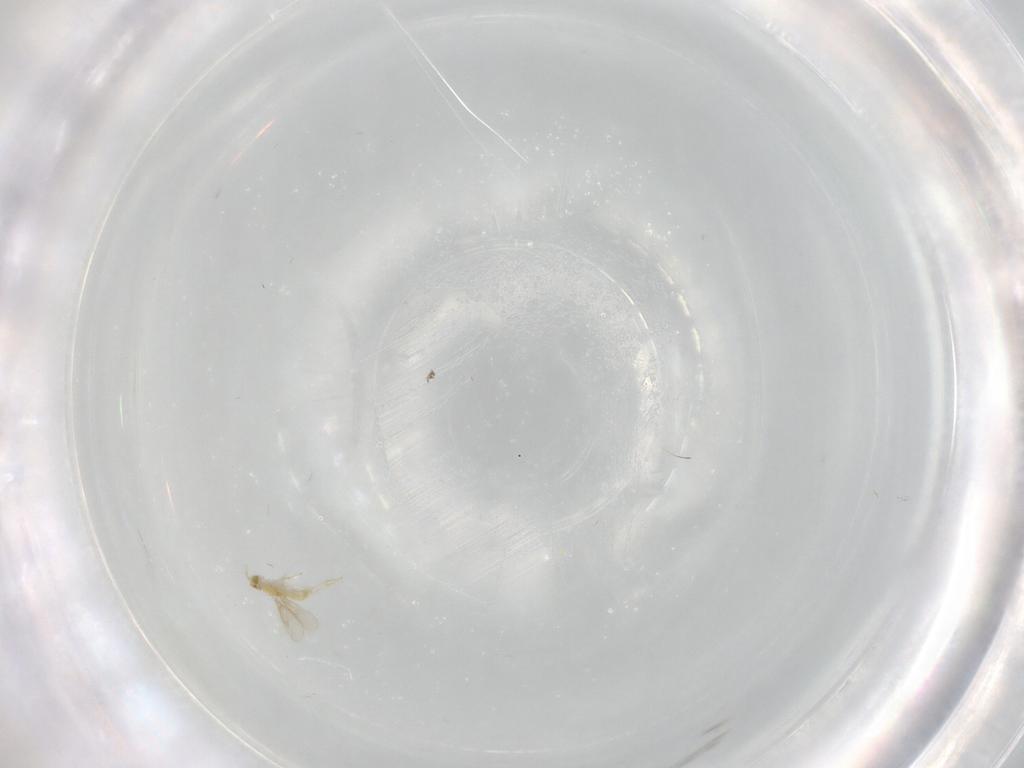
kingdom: Animalia
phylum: Arthropoda
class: Insecta
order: Hymenoptera
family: Aphelinidae
